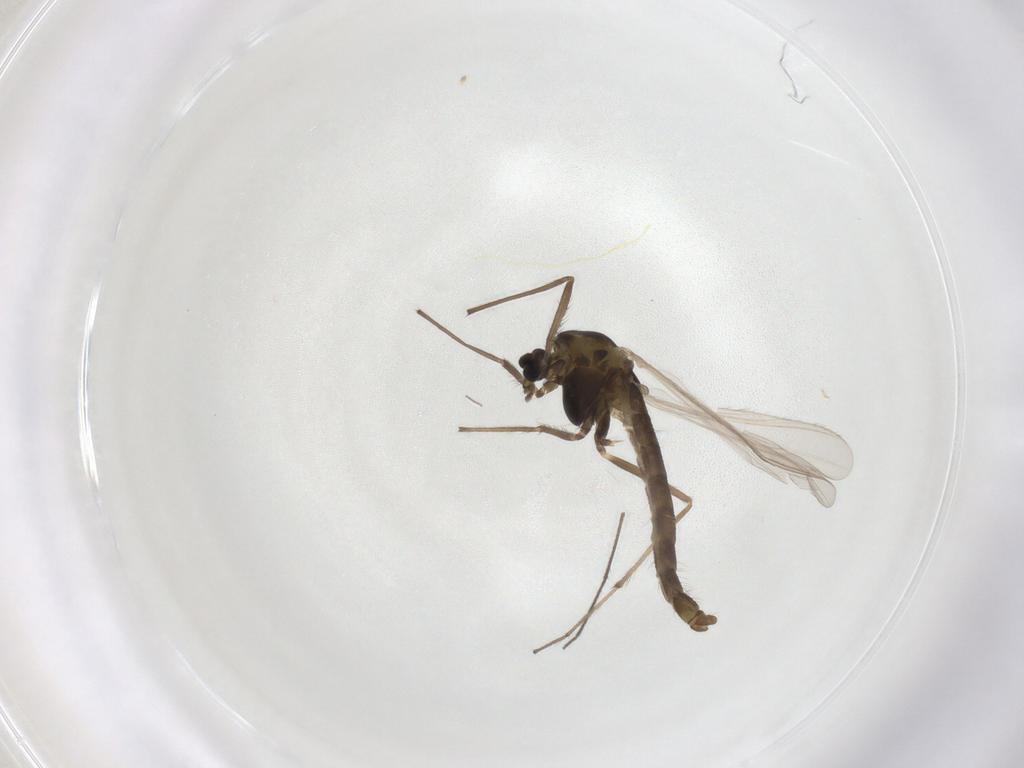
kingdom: Animalia
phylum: Arthropoda
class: Insecta
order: Diptera
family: Chironomidae
